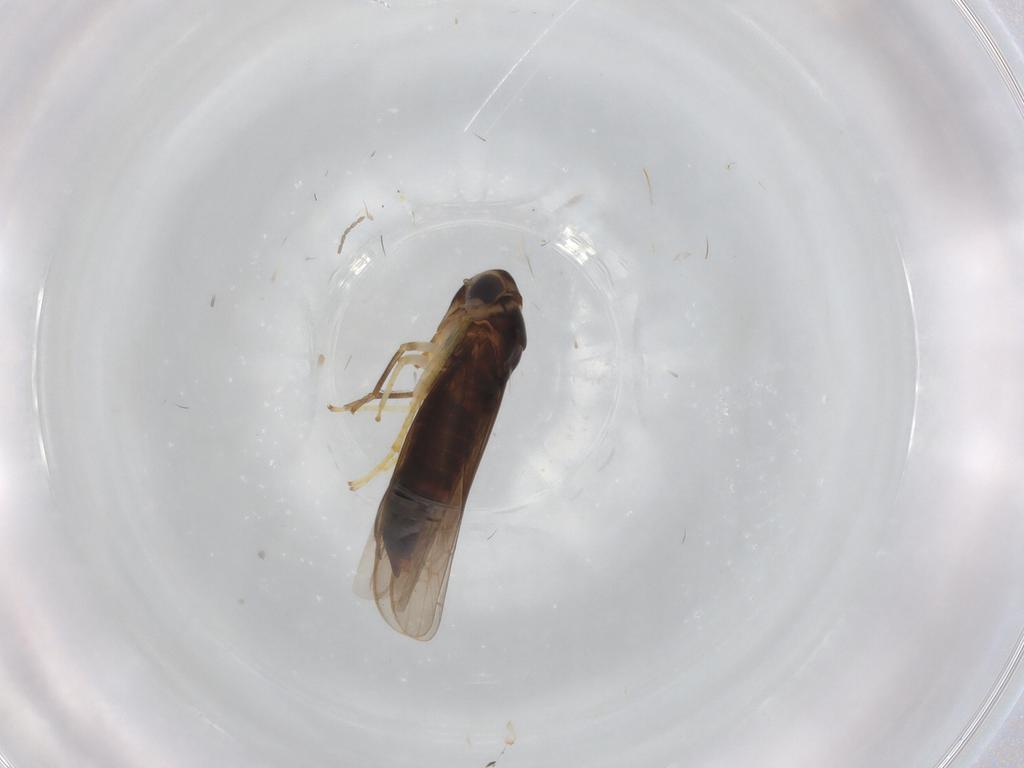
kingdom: Animalia
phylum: Arthropoda
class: Insecta
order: Hemiptera
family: Cicadellidae
